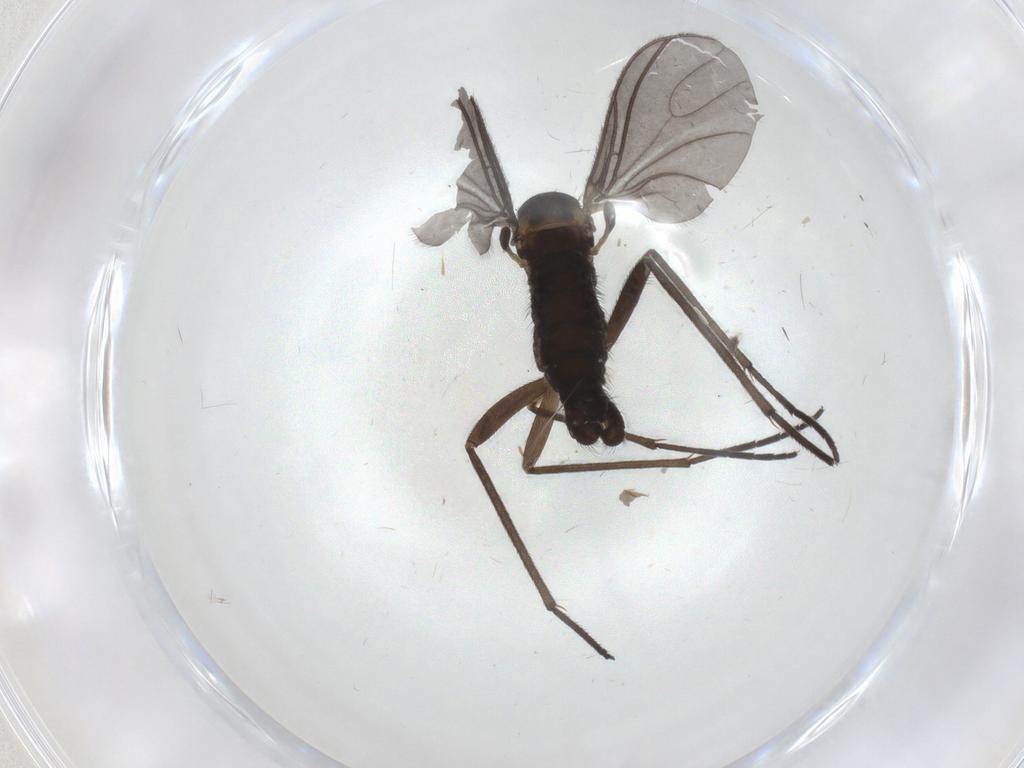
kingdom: Animalia
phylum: Arthropoda
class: Insecta
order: Diptera
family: Sciaridae
